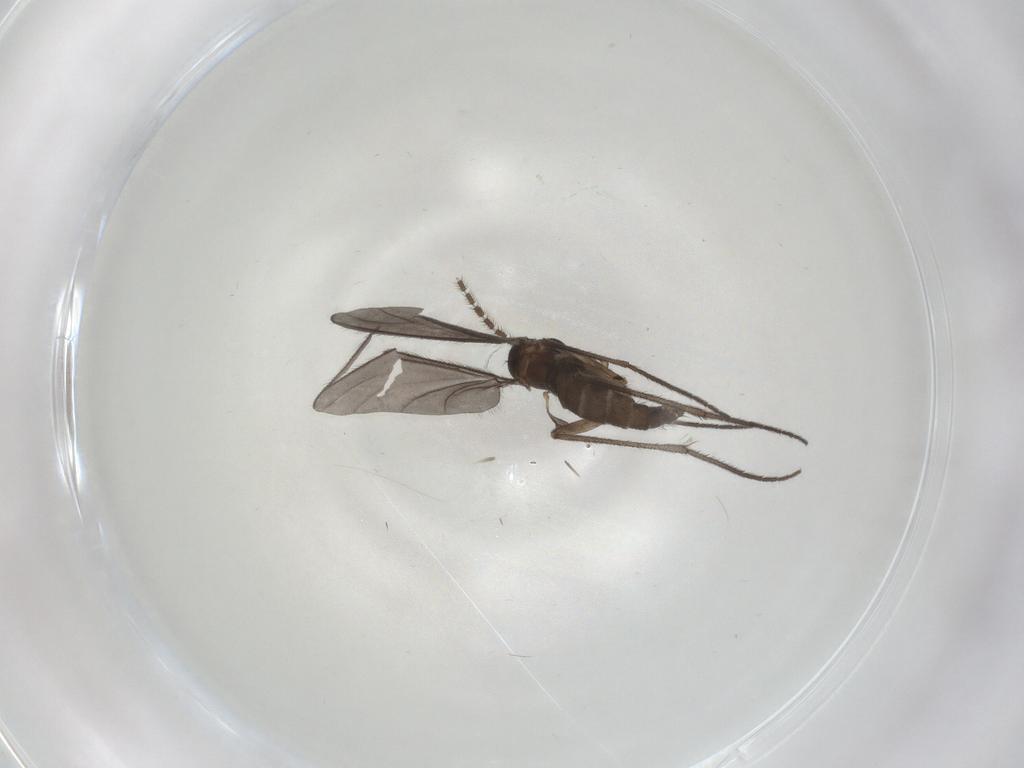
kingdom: Animalia
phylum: Arthropoda
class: Insecta
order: Diptera
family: Sciaridae
